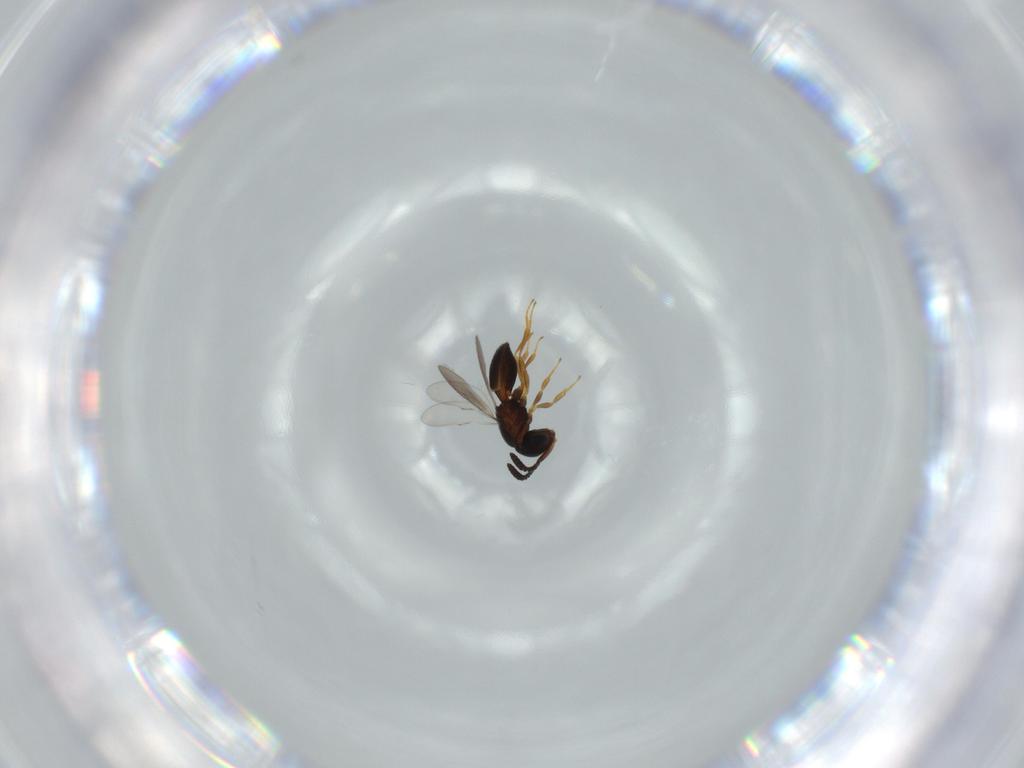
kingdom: Animalia
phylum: Arthropoda
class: Insecta
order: Hymenoptera
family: Scelionidae
